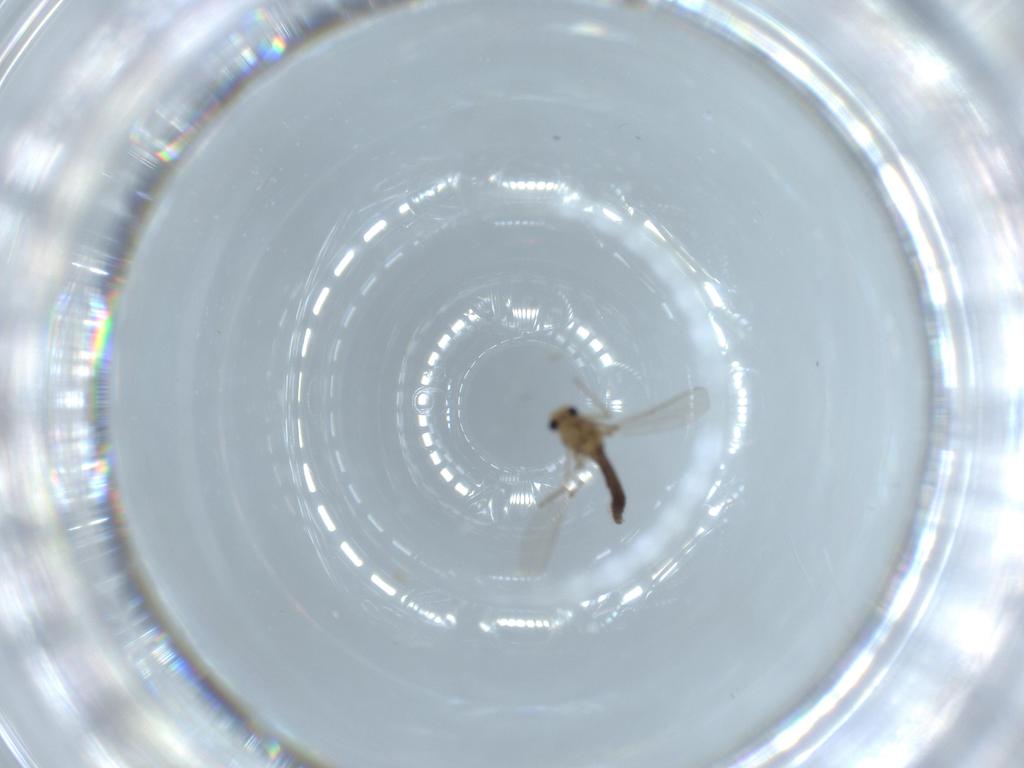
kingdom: Animalia
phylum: Arthropoda
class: Insecta
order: Diptera
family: Chironomidae
